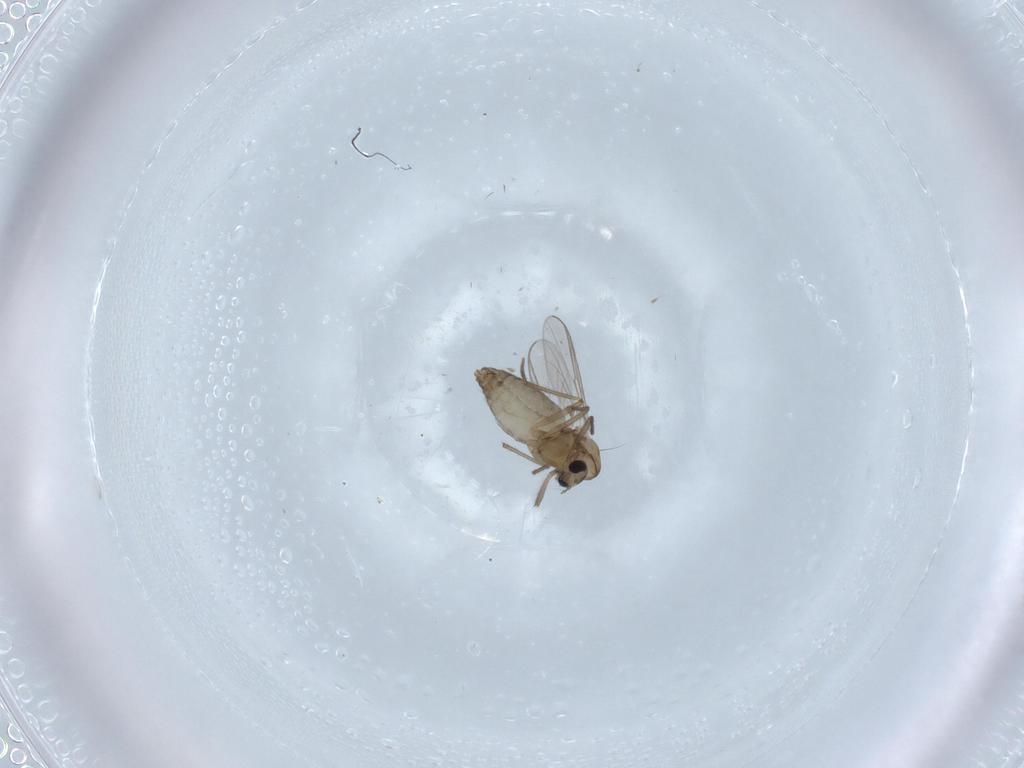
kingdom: Animalia
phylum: Arthropoda
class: Insecta
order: Diptera
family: Chironomidae
